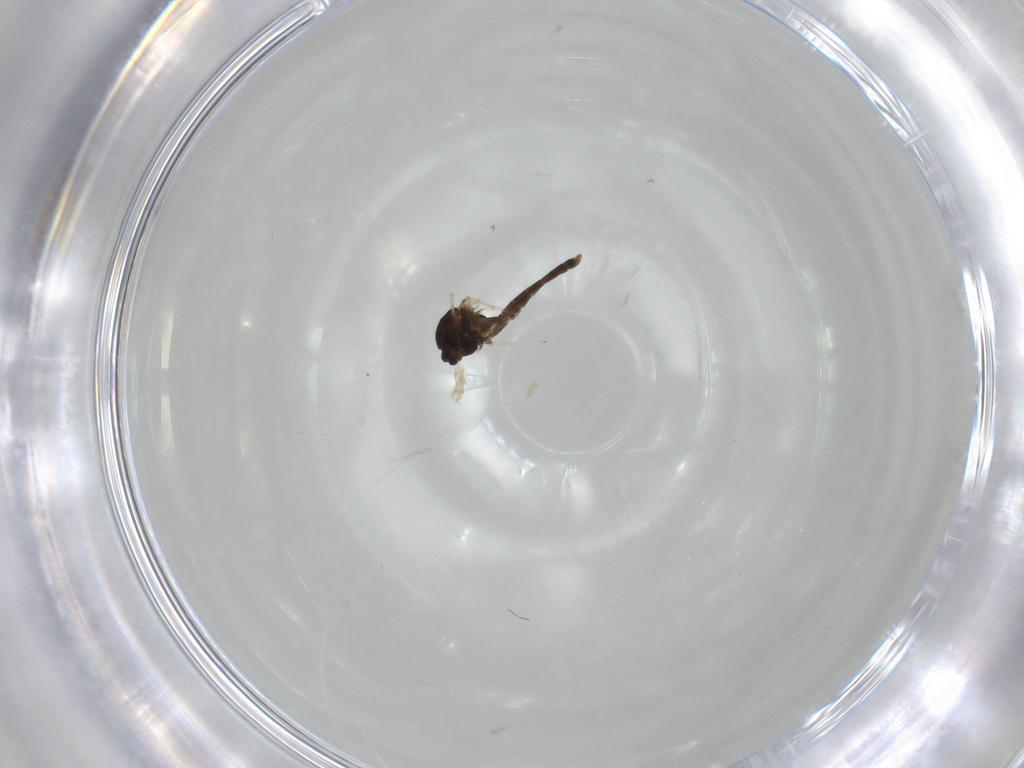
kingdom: Animalia
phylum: Arthropoda
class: Insecta
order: Diptera
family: Chironomidae
